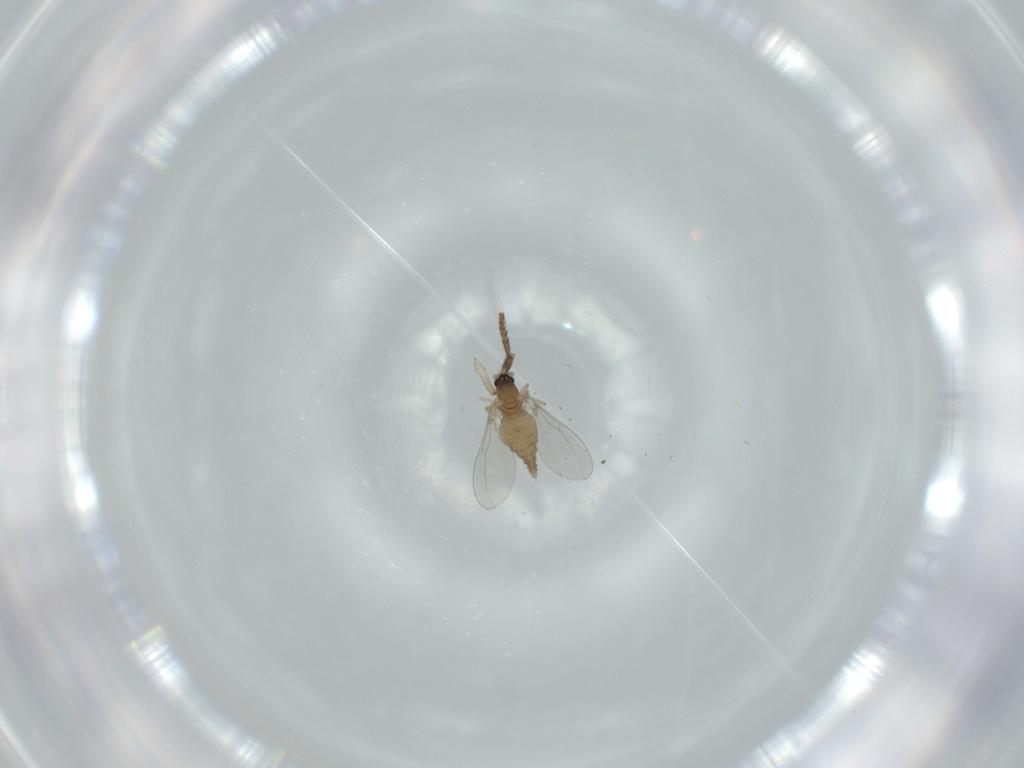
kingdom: Animalia
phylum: Arthropoda
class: Insecta
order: Diptera
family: Cecidomyiidae
